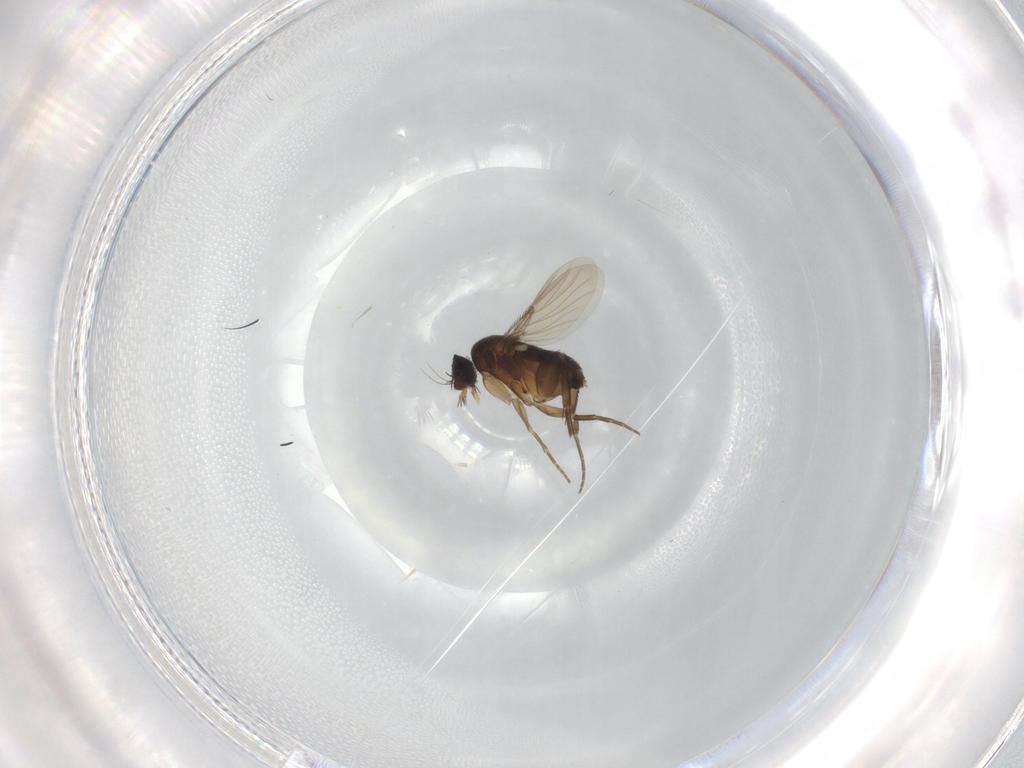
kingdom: Animalia
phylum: Arthropoda
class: Insecta
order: Diptera
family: Phoridae
